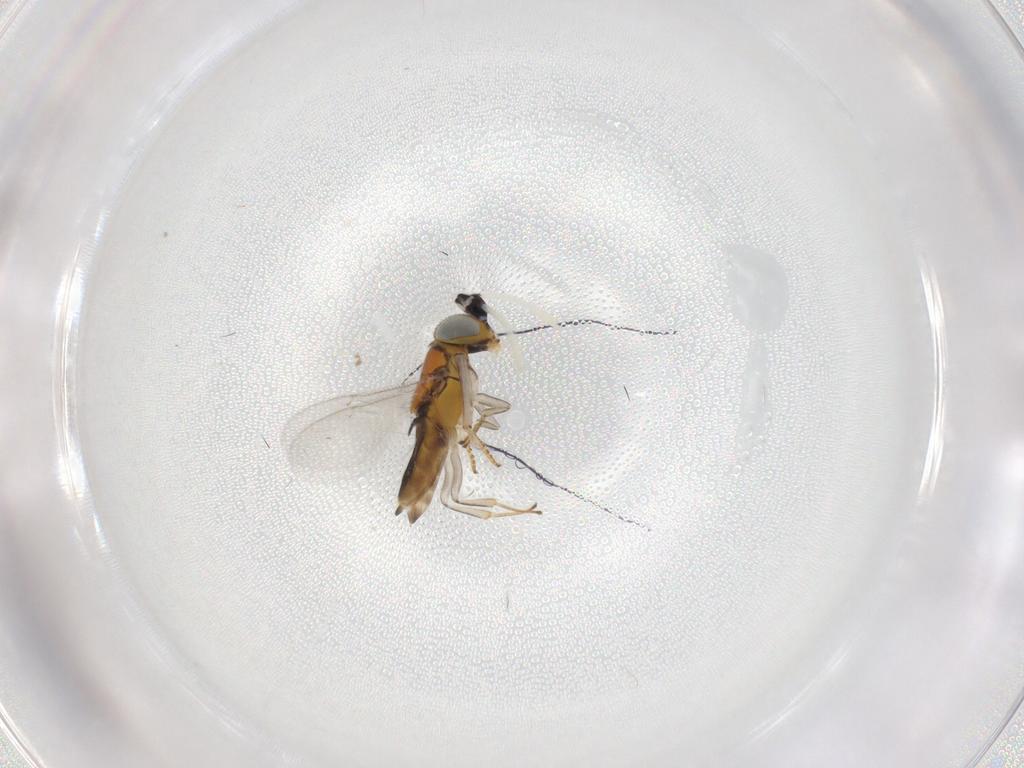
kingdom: Animalia
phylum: Arthropoda
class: Insecta
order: Hymenoptera
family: Encyrtidae
